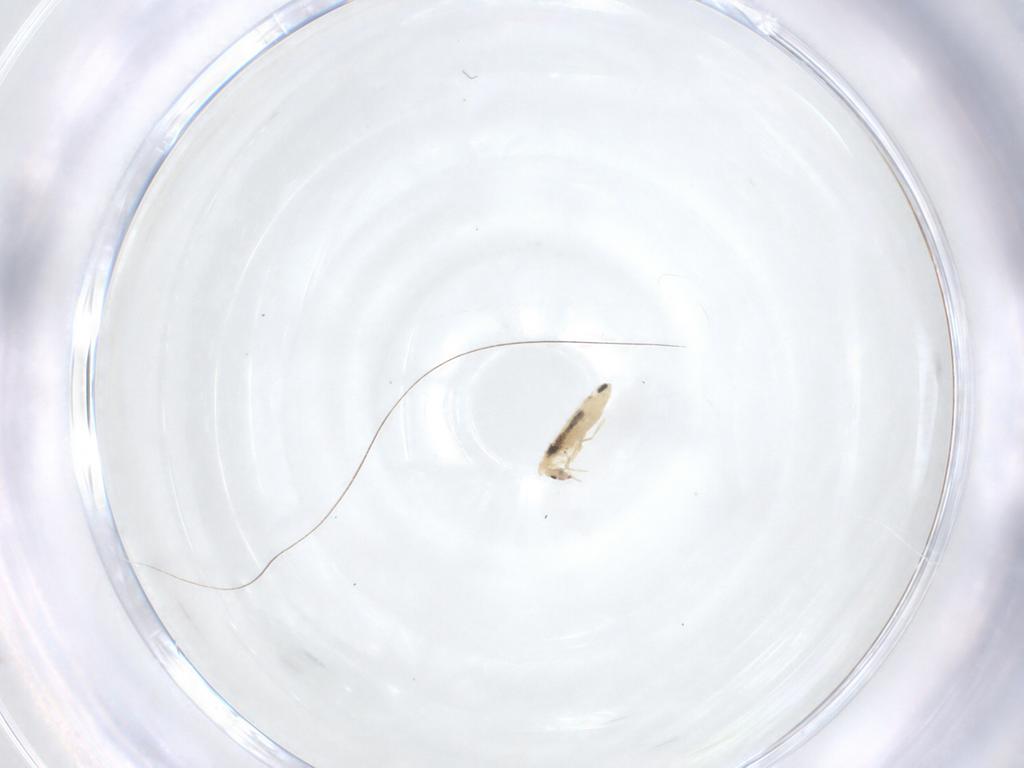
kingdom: Animalia
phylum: Arthropoda
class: Collembola
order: Entomobryomorpha
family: Entomobryidae
